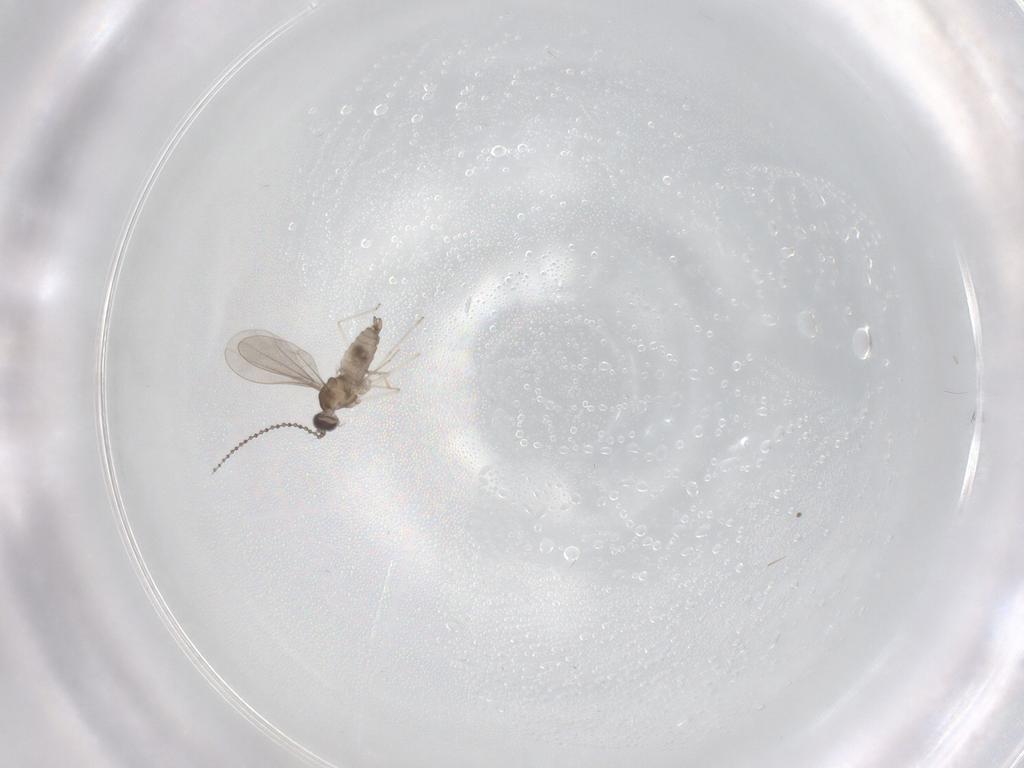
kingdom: Animalia
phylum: Arthropoda
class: Insecta
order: Diptera
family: Cecidomyiidae
